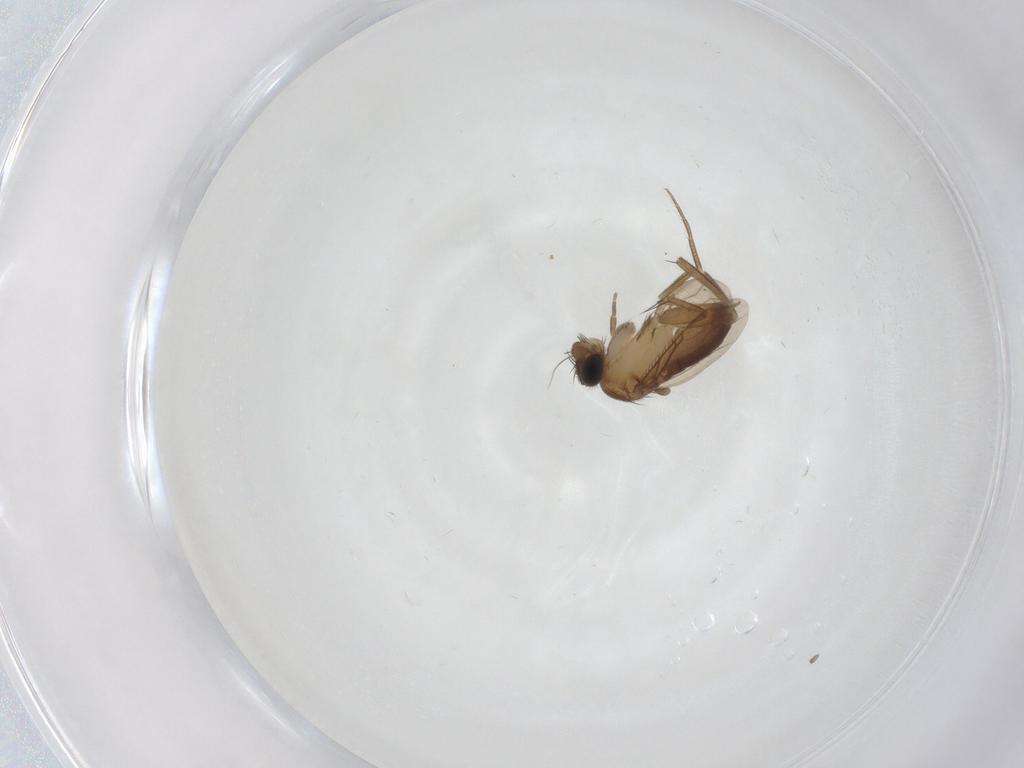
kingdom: Animalia
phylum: Arthropoda
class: Insecta
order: Diptera
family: Phoridae
